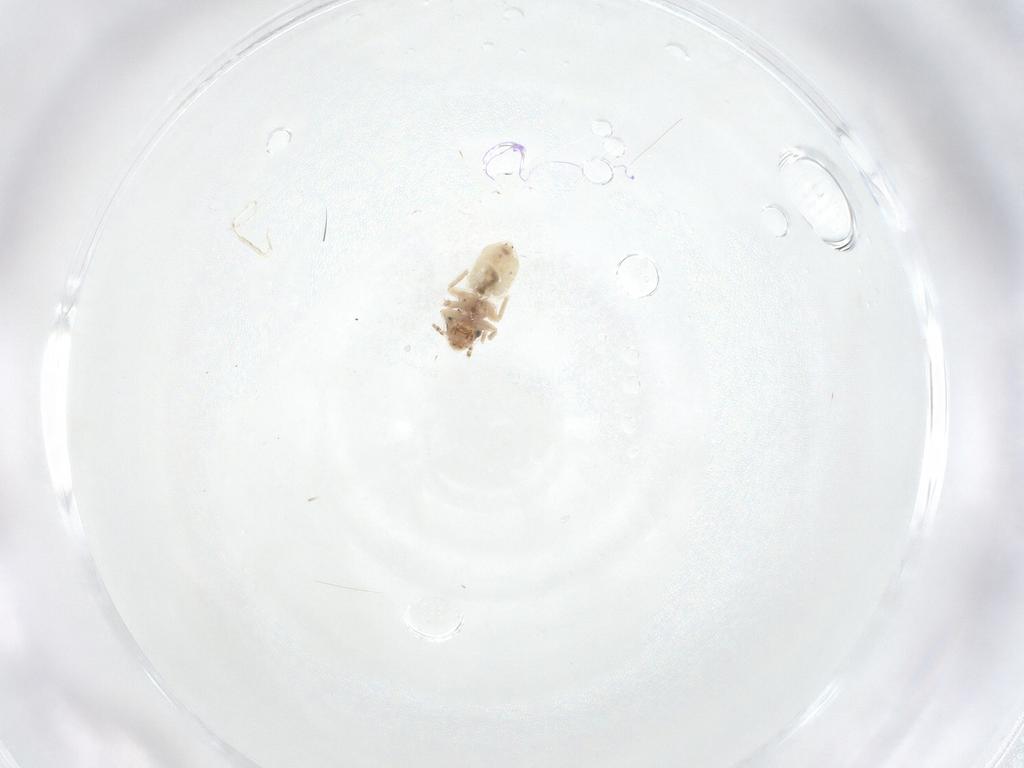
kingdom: Animalia
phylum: Arthropoda
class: Insecta
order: Psocodea
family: Lepidopsocidae
